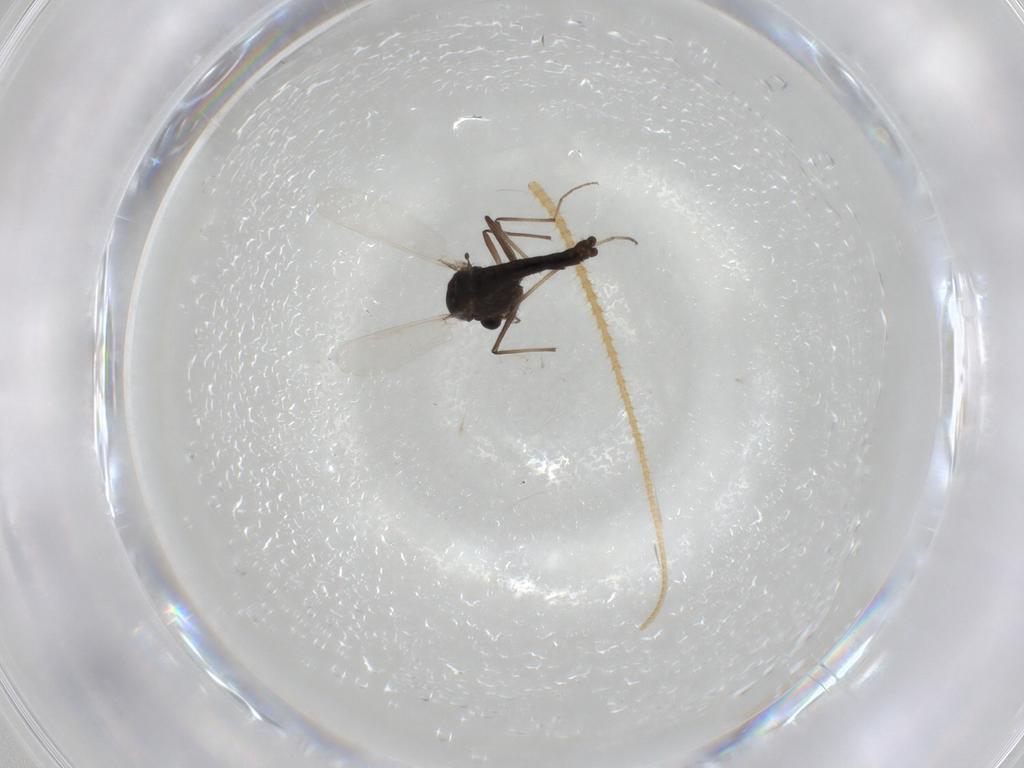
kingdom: Animalia
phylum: Arthropoda
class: Insecta
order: Diptera
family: Chironomidae
